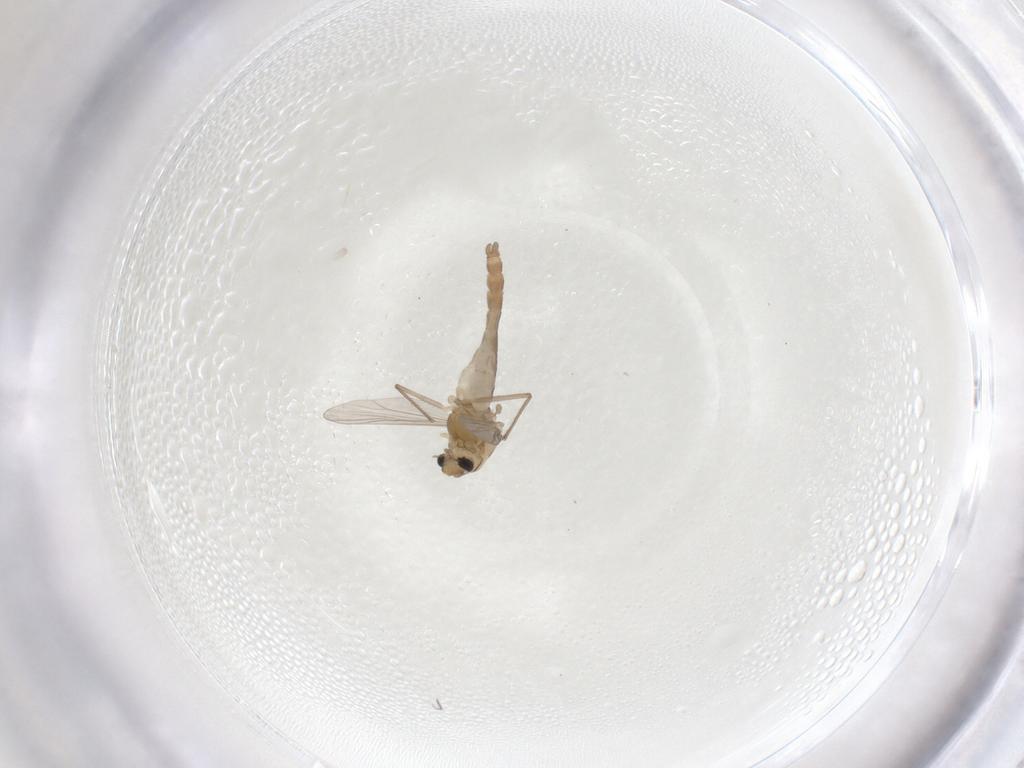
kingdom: Animalia
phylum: Arthropoda
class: Insecta
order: Diptera
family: Chironomidae
